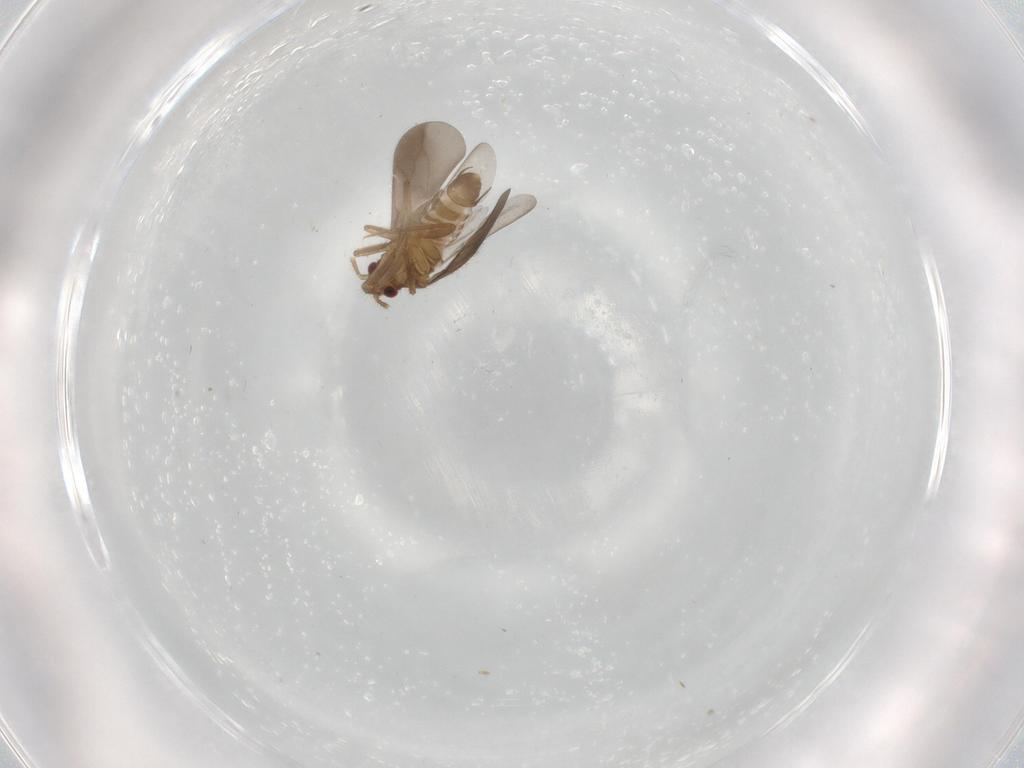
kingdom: Animalia
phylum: Arthropoda
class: Insecta
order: Hemiptera
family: Ceratocombidae
